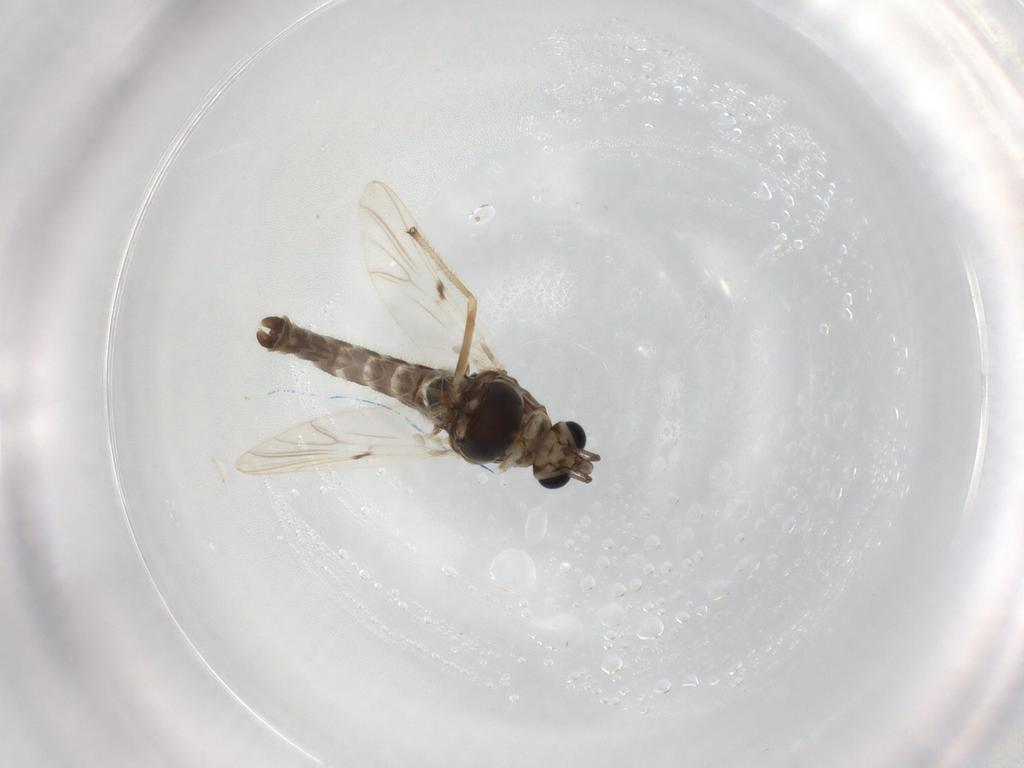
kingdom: Animalia
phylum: Arthropoda
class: Insecta
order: Diptera
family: Chironomidae
